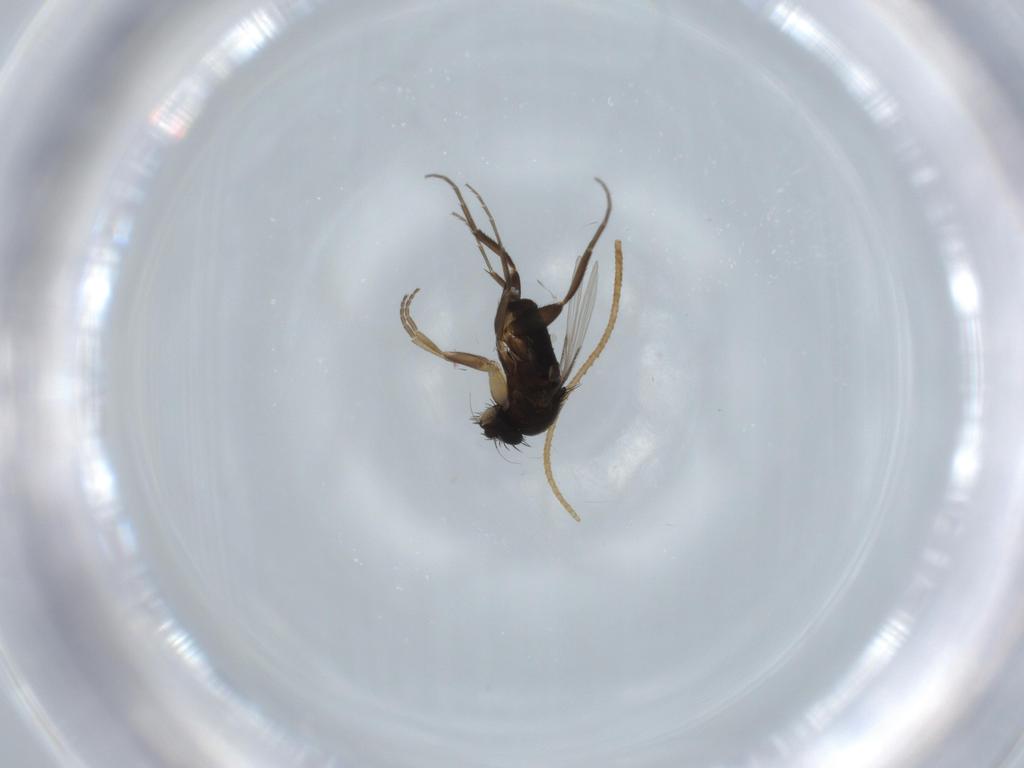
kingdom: Animalia
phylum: Arthropoda
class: Insecta
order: Diptera
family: Phoridae
